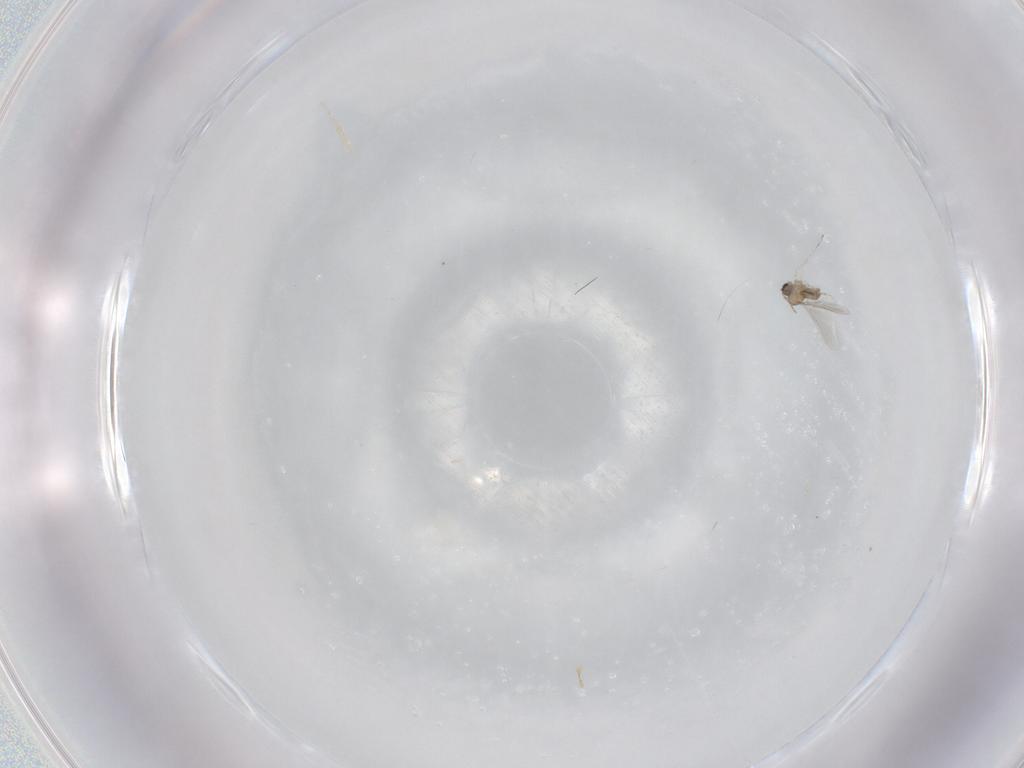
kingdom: Animalia
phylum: Arthropoda
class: Insecta
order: Diptera
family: Cecidomyiidae
